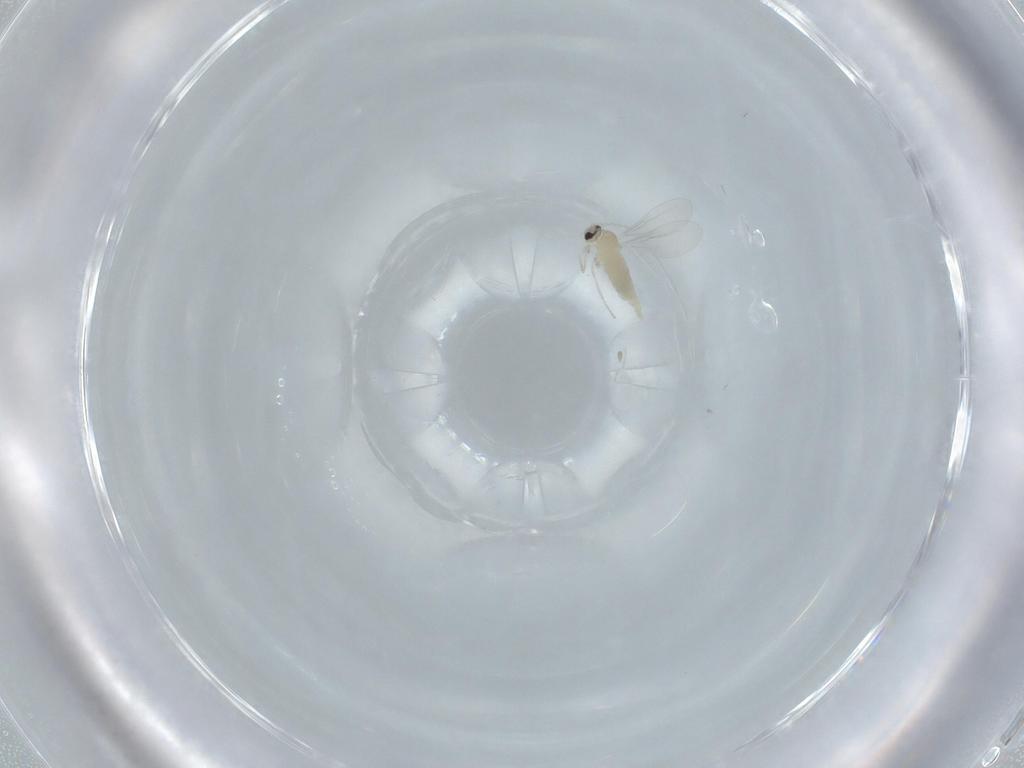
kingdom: Animalia
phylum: Arthropoda
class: Insecta
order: Diptera
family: Cecidomyiidae
